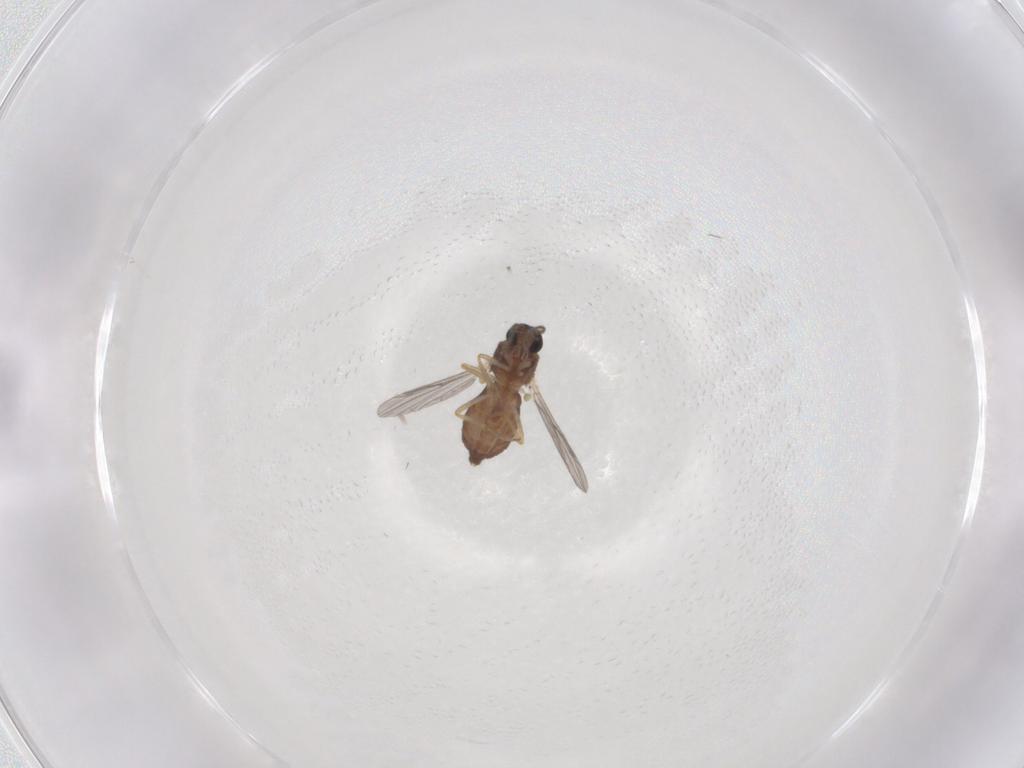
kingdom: Animalia
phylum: Arthropoda
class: Insecta
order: Diptera
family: Ceratopogonidae
